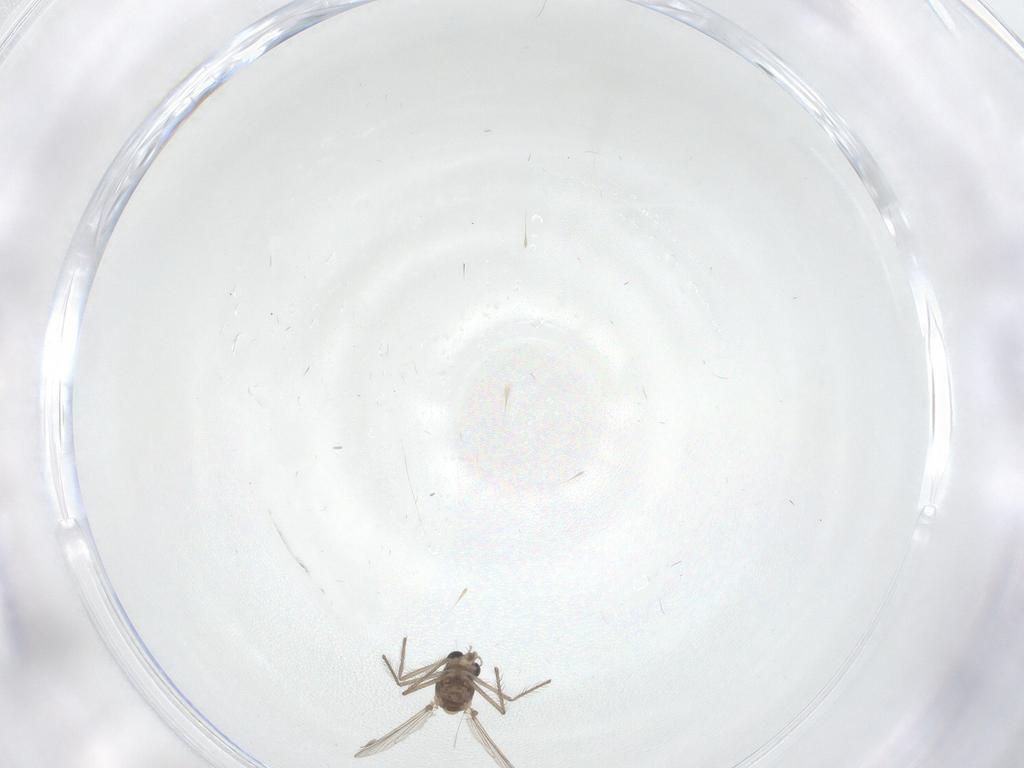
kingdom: Animalia
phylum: Arthropoda
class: Insecta
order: Diptera
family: Chironomidae
